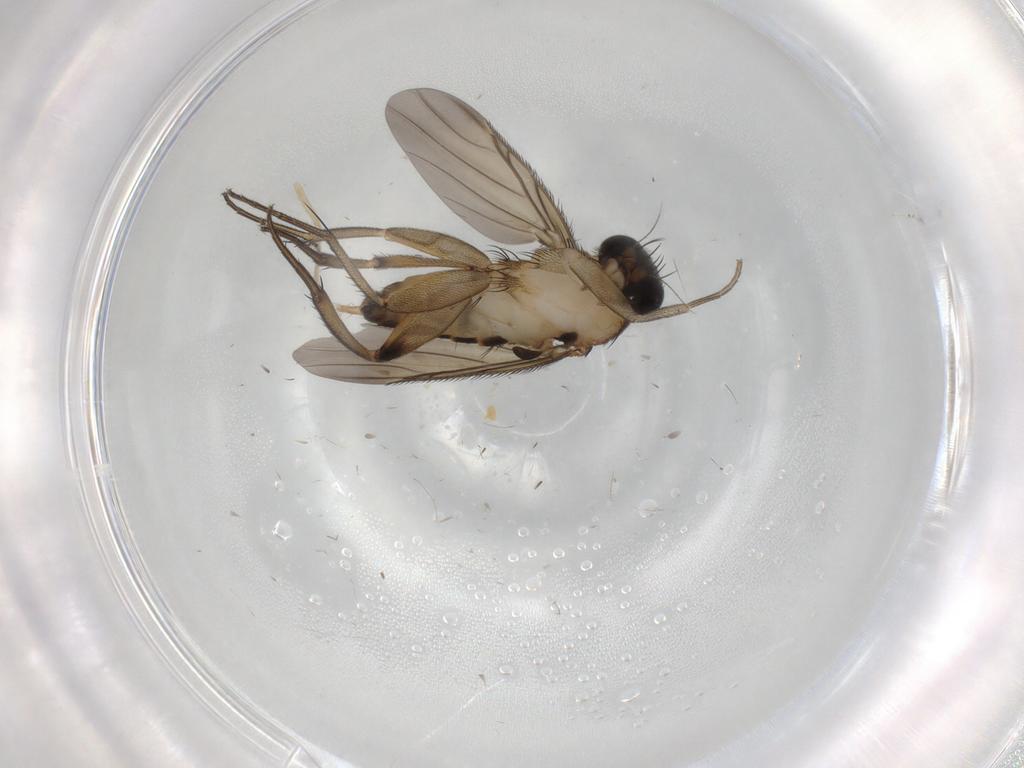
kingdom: Animalia
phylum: Arthropoda
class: Insecta
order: Diptera
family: Phoridae
